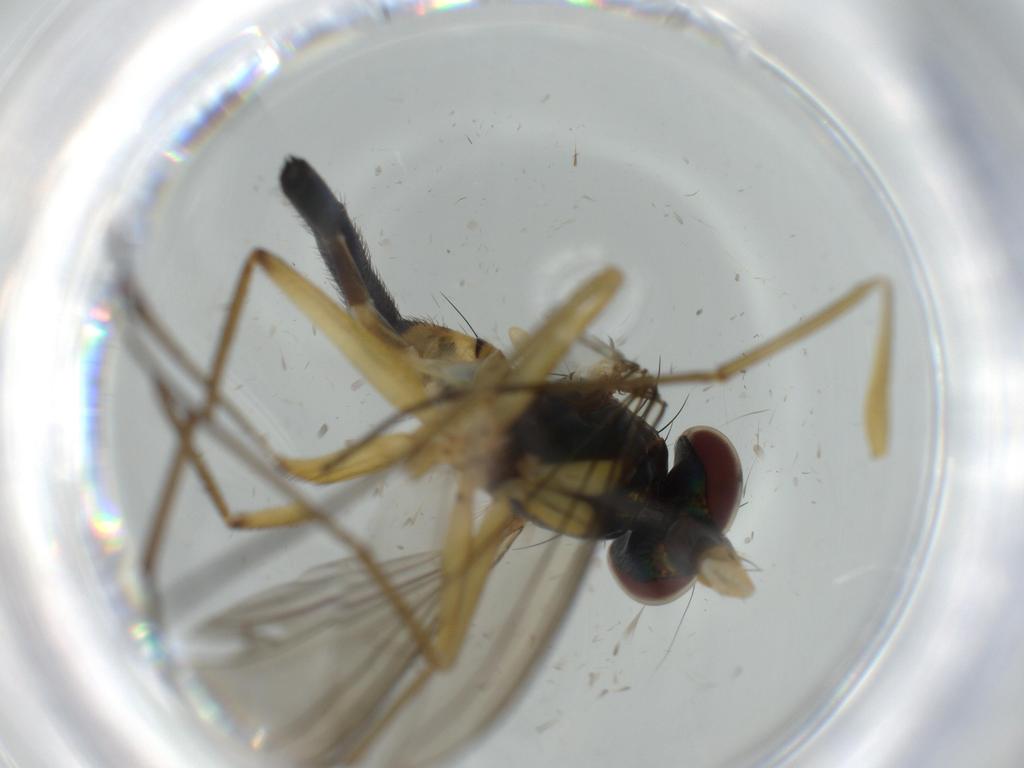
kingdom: Animalia
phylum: Arthropoda
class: Insecta
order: Diptera
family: Dolichopodidae
